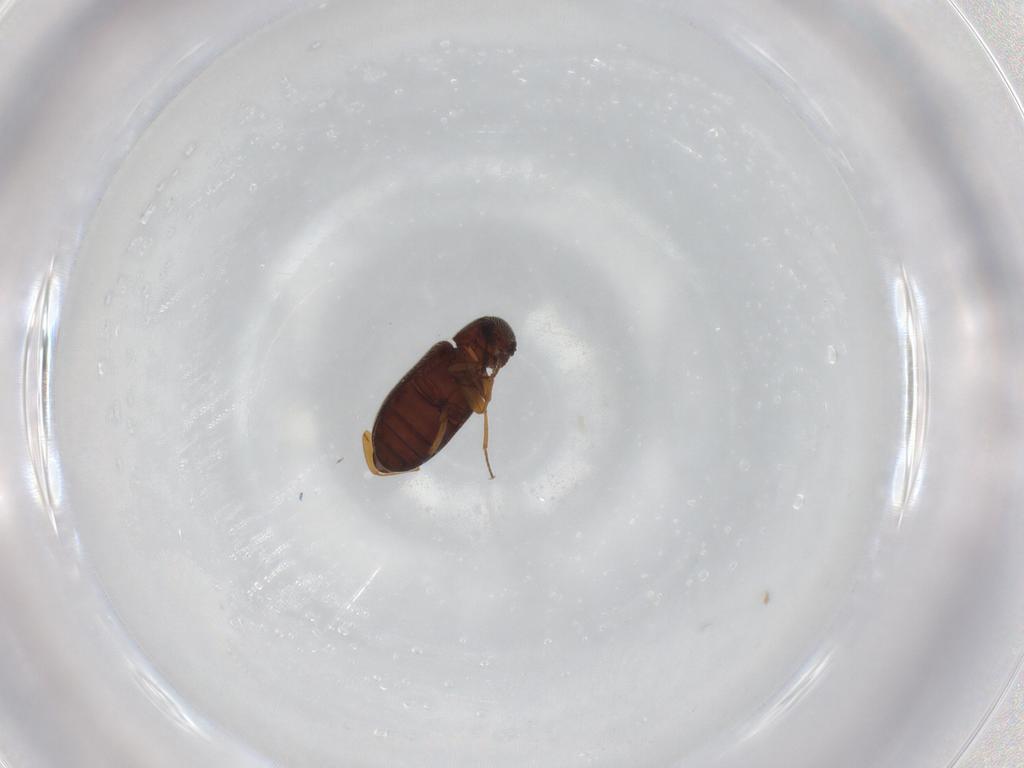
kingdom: Animalia
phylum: Arthropoda
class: Insecta
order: Coleoptera
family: Rhadalidae
